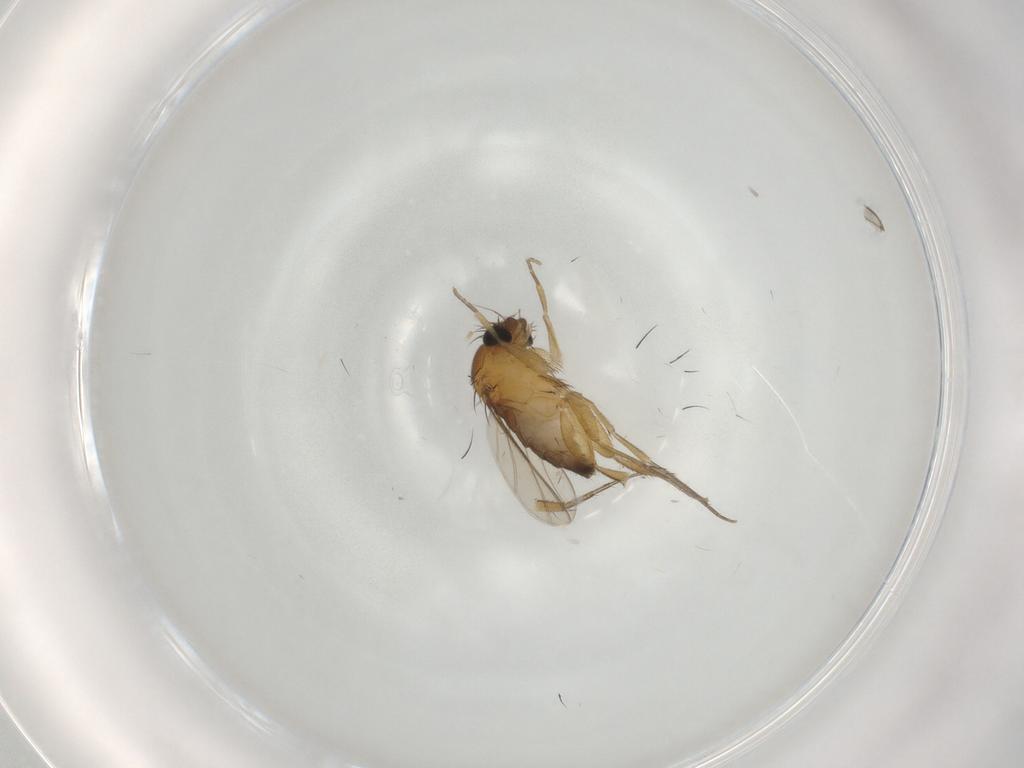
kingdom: Animalia
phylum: Arthropoda
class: Insecta
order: Diptera
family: Phoridae
